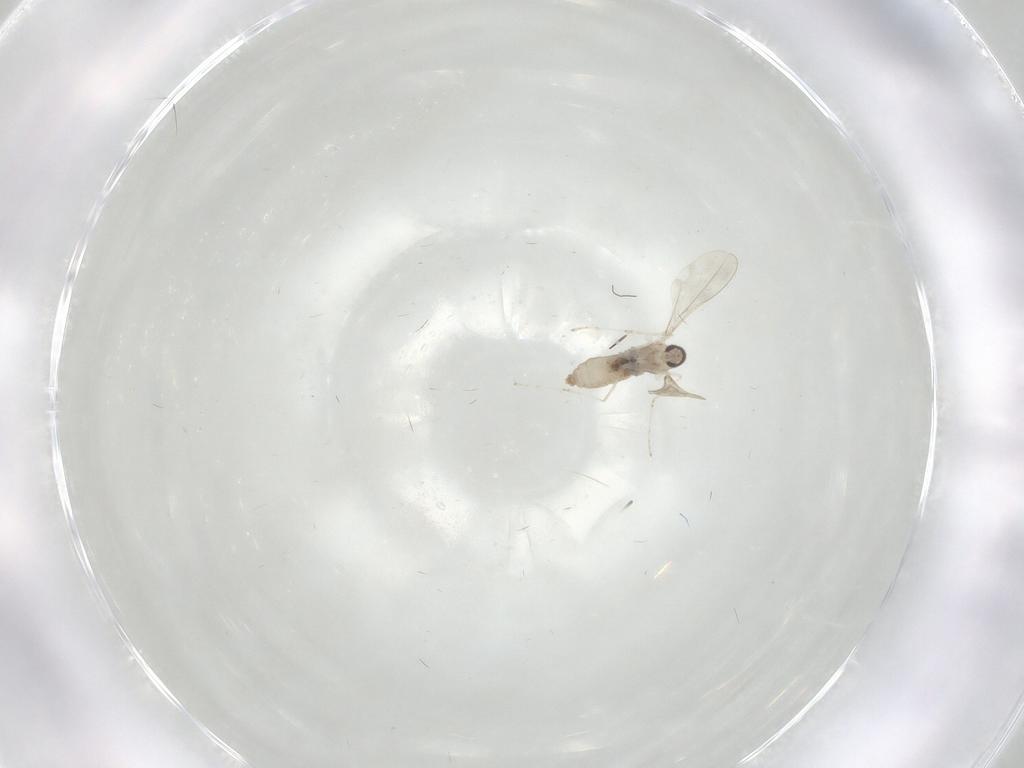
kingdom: Animalia
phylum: Arthropoda
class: Insecta
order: Diptera
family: Cecidomyiidae
